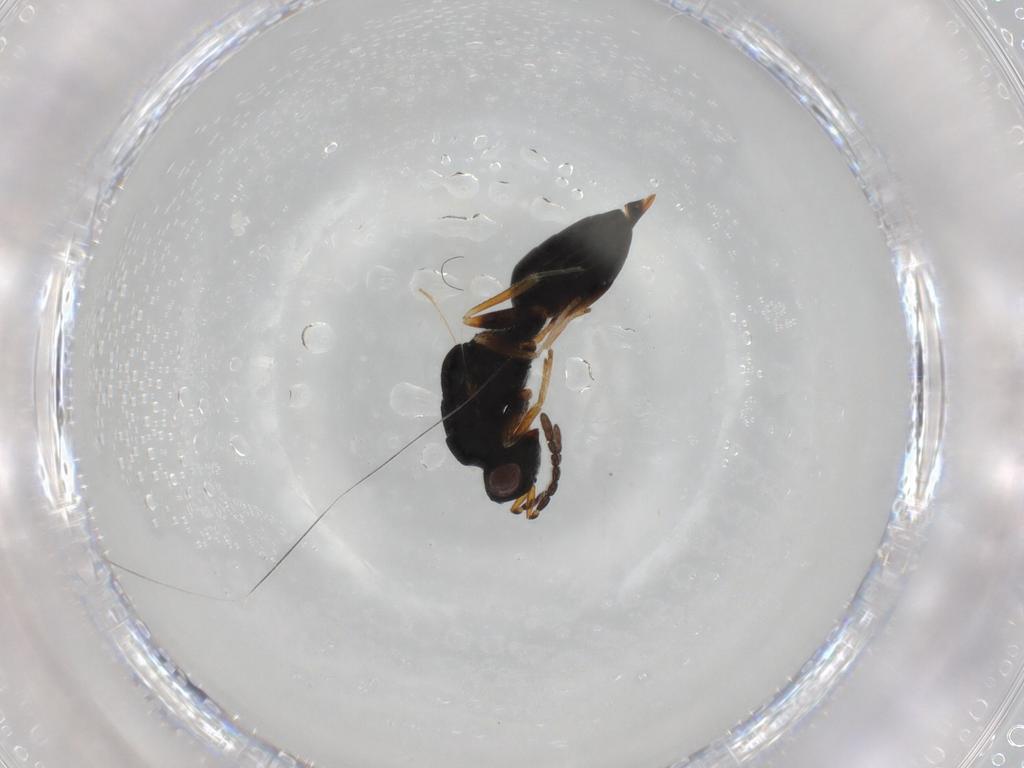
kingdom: Animalia
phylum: Arthropoda
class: Insecta
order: Hymenoptera
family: Eurytomidae
